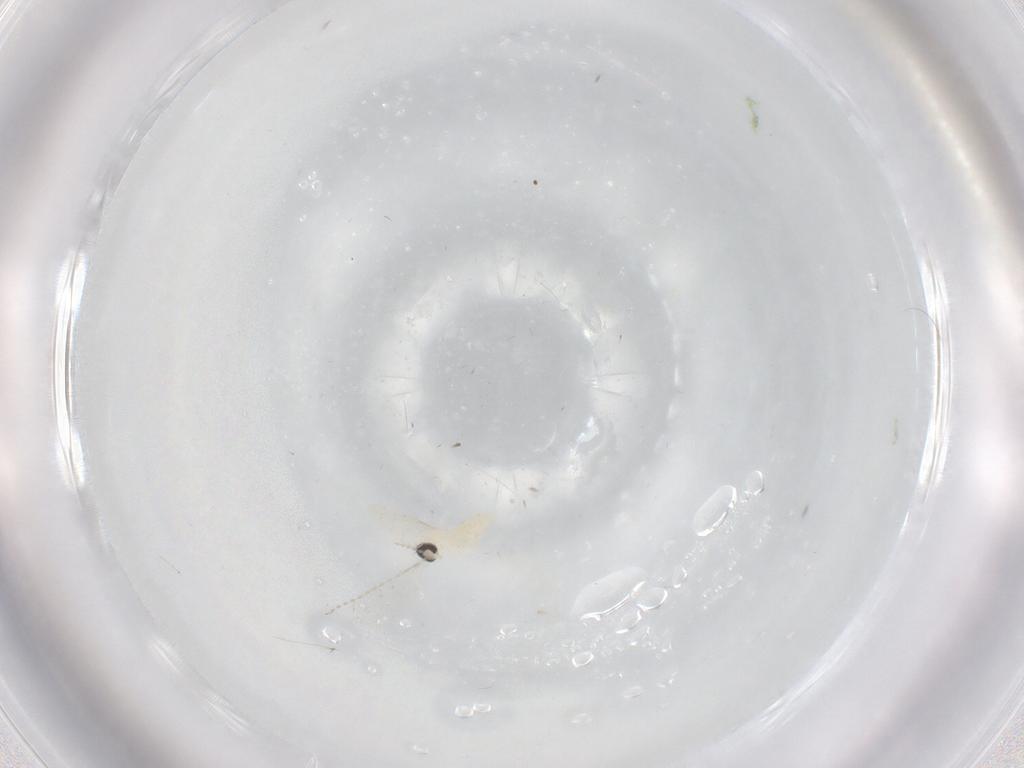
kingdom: Animalia
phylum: Arthropoda
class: Insecta
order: Diptera
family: Cecidomyiidae
